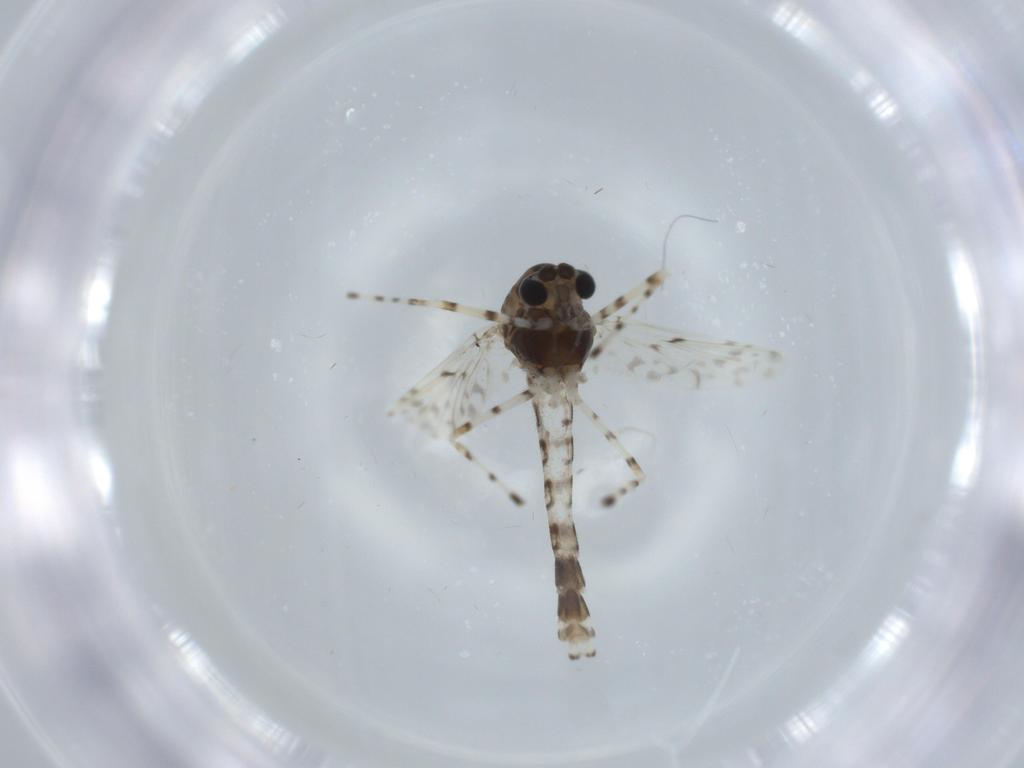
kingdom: Animalia
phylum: Arthropoda
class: Insecta
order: Diptera
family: Chironomidae
